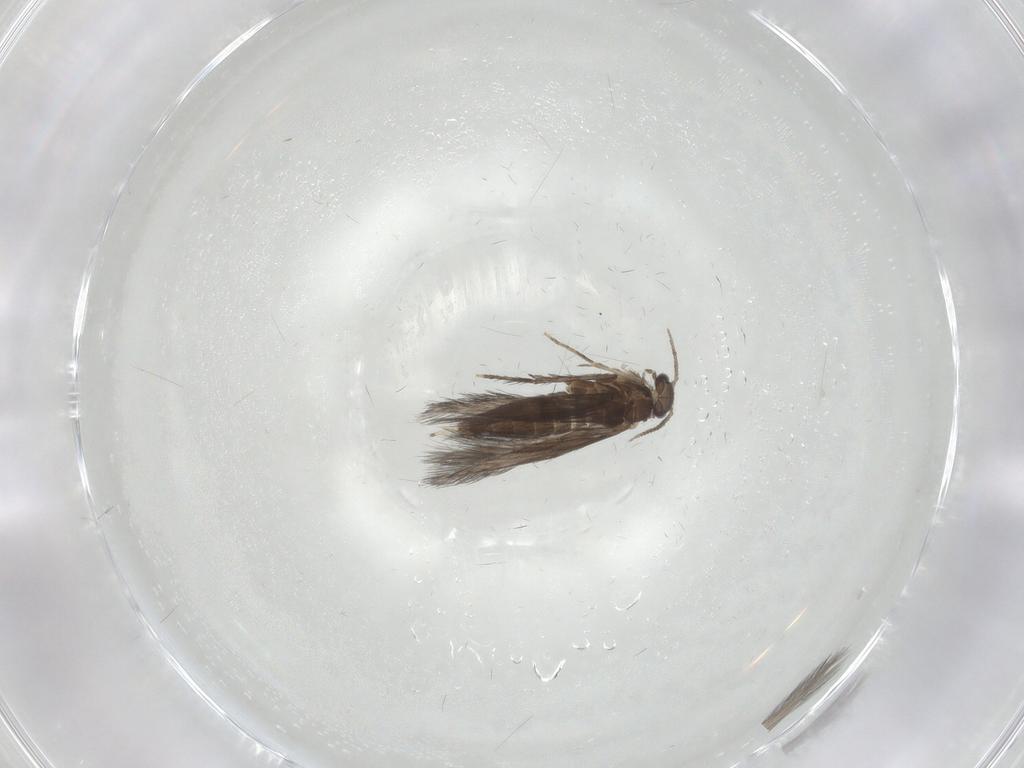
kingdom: Animalia
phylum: Arthropoda
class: Insecta
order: Trichoptera
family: Hydroptilidae
